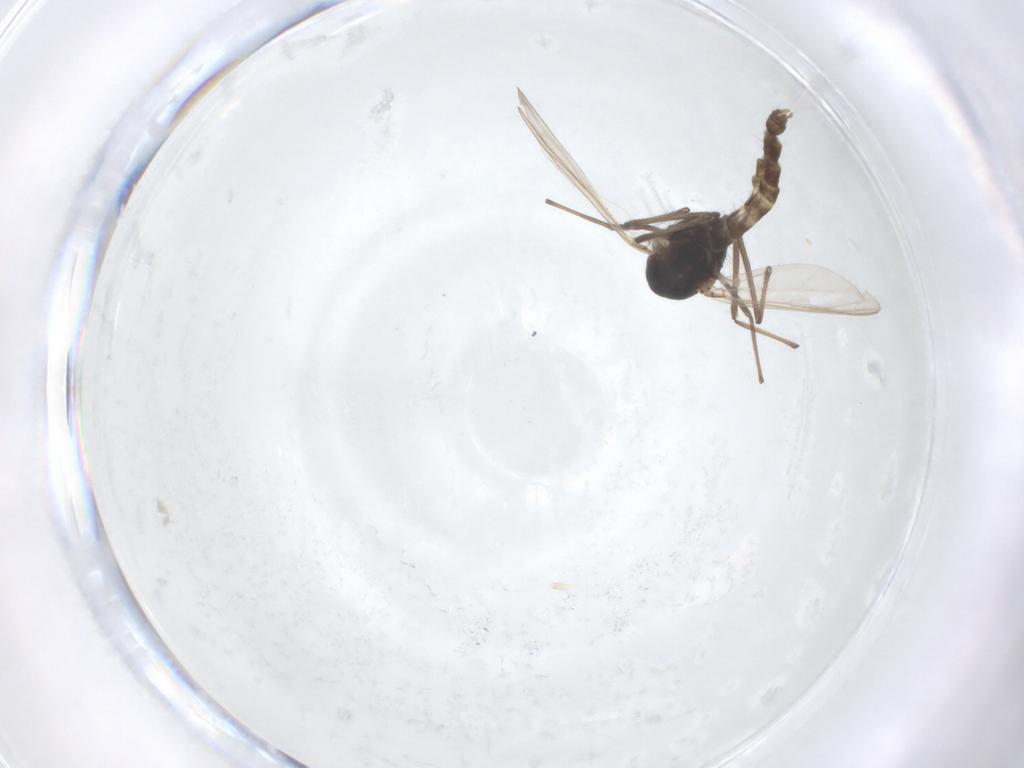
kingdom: Animalia
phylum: Arthropoda
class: Insecta
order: Diptera
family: Chironomidae
